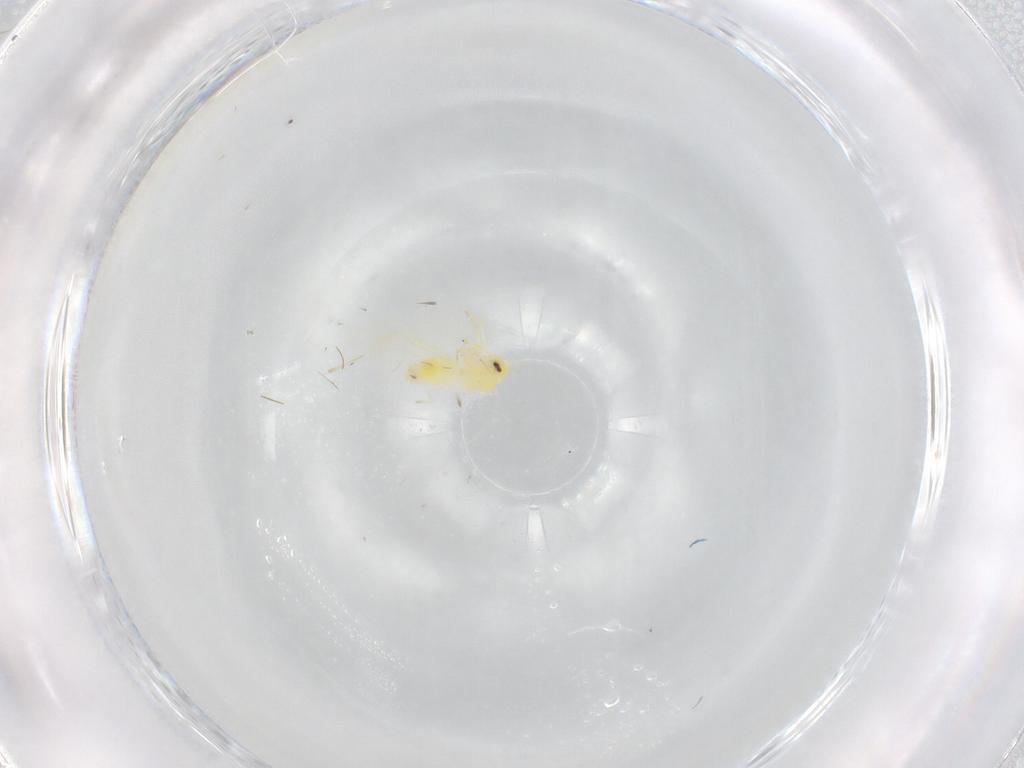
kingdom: Animalia
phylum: Arthropoda
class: Insecta
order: Hemiptera
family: Aleyrodidae
